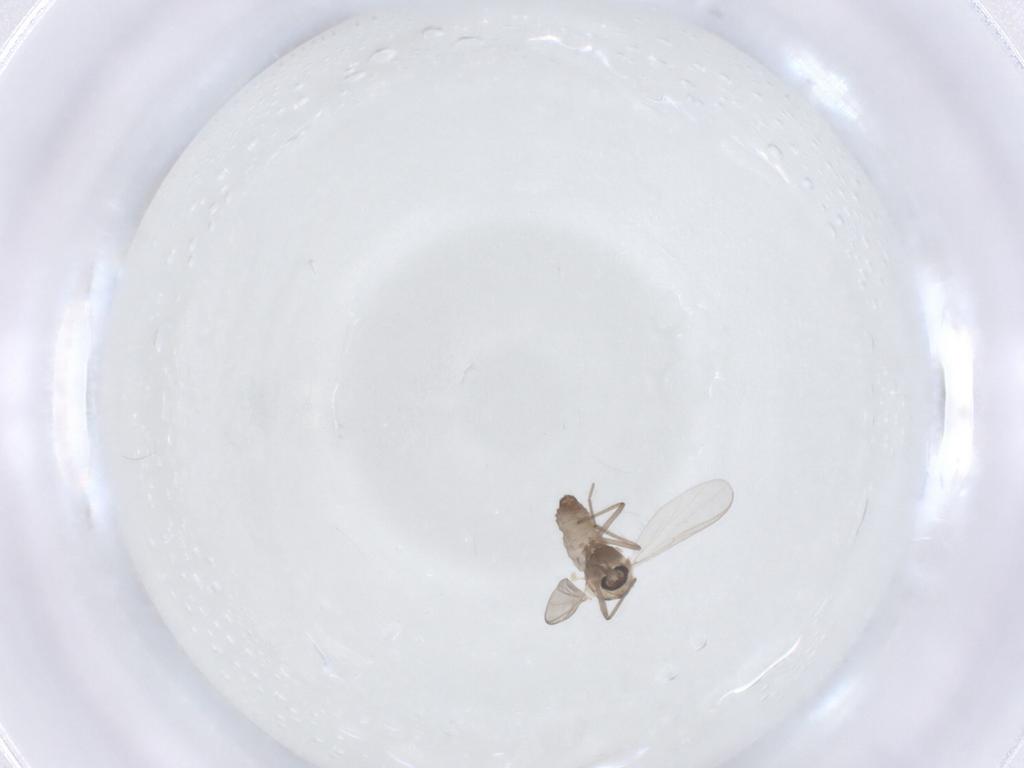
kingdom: Animalia
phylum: Arthropoda
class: Insecta
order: Diptera
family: Chironomidae
